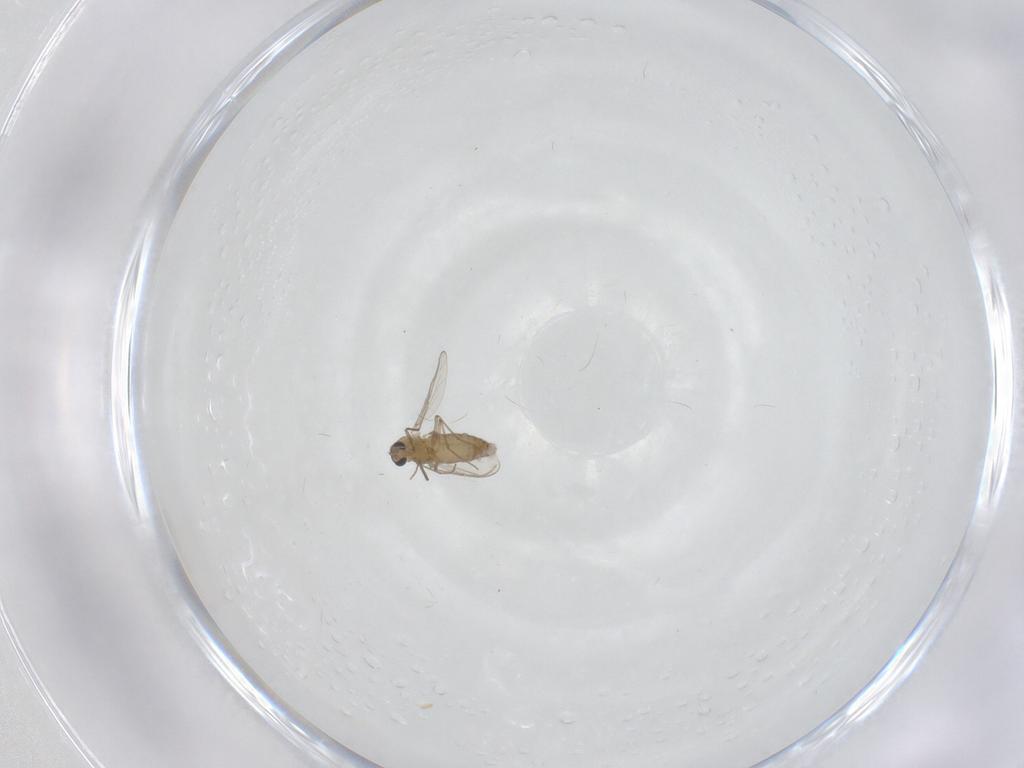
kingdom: Animalia
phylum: Arthropoda
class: Insecta
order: Diptera
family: Chironomidae
